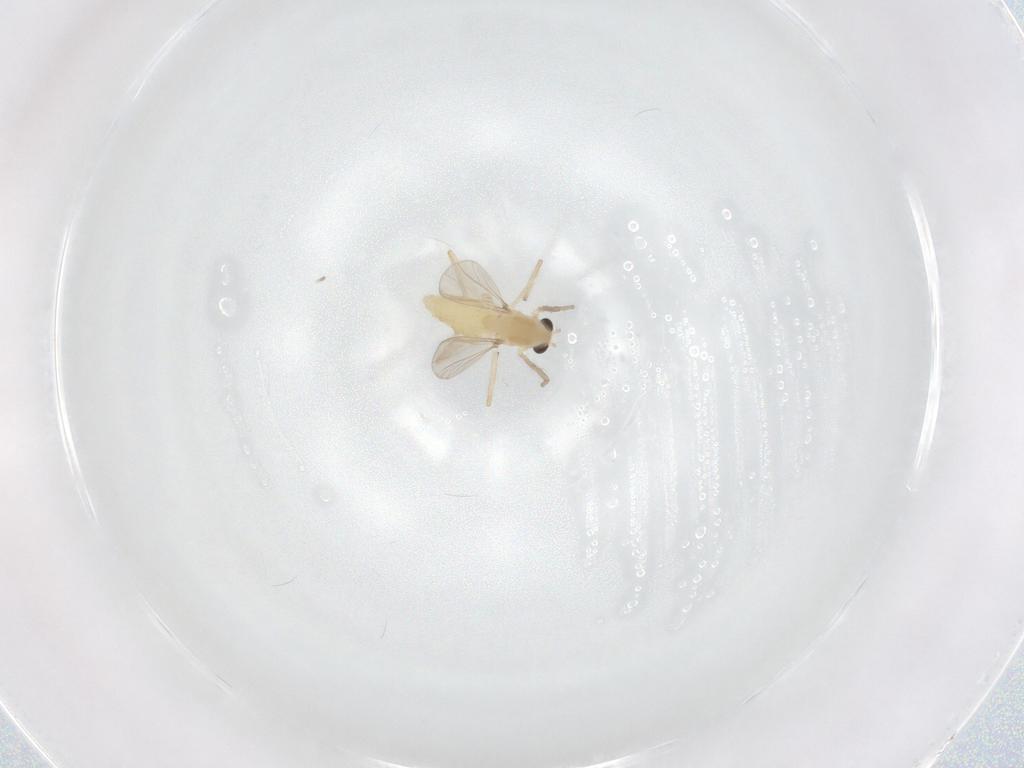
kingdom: Animalia
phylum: Arthropoda
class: Insecta
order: Diptera
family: Chironomidae
